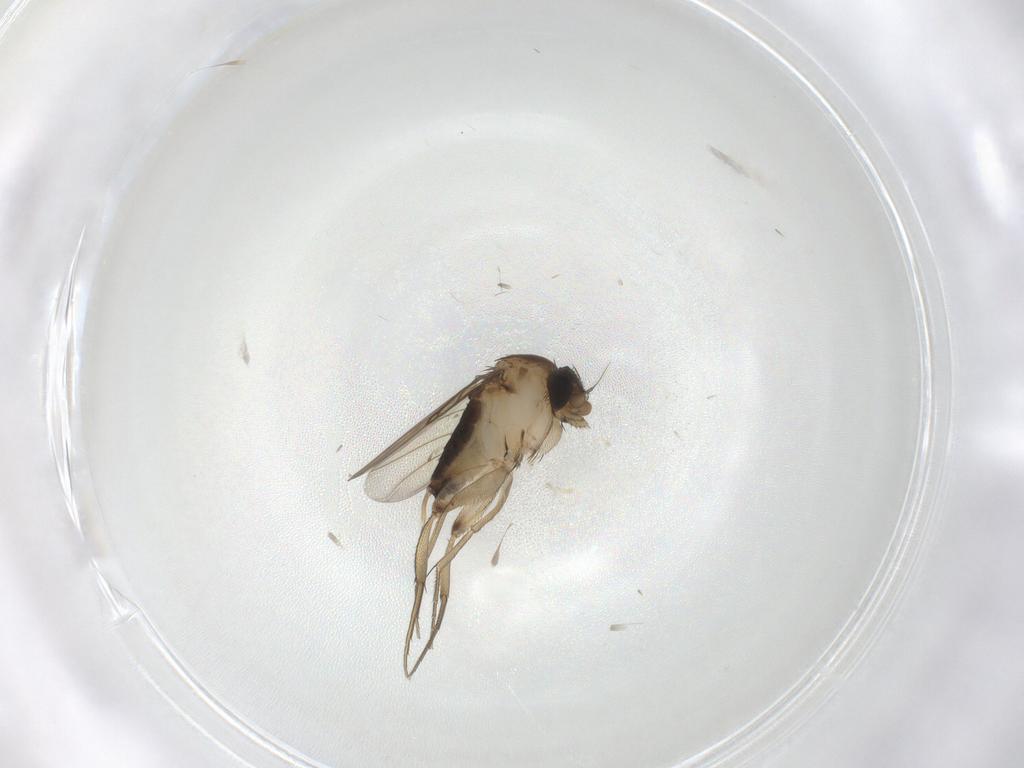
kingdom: Animalia
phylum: Arthropoda
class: Insecta
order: Diptera
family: Phoridae
